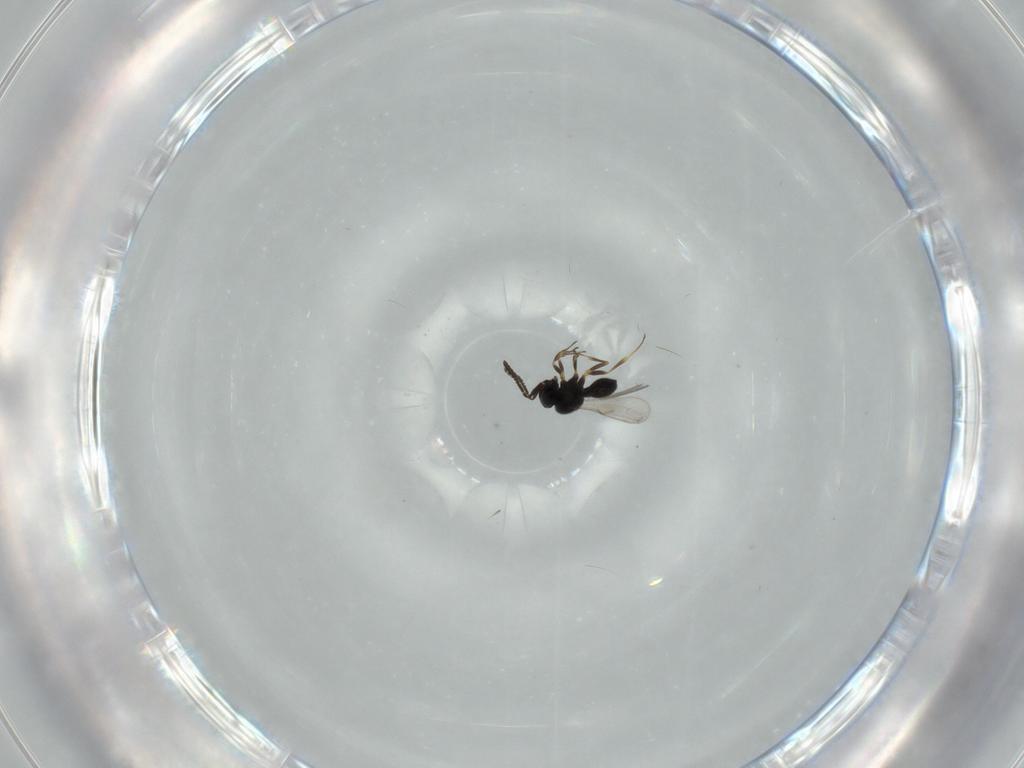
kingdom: Animalia
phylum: Arthropoda
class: Insecta
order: Hymenoptera
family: Scelionidae
